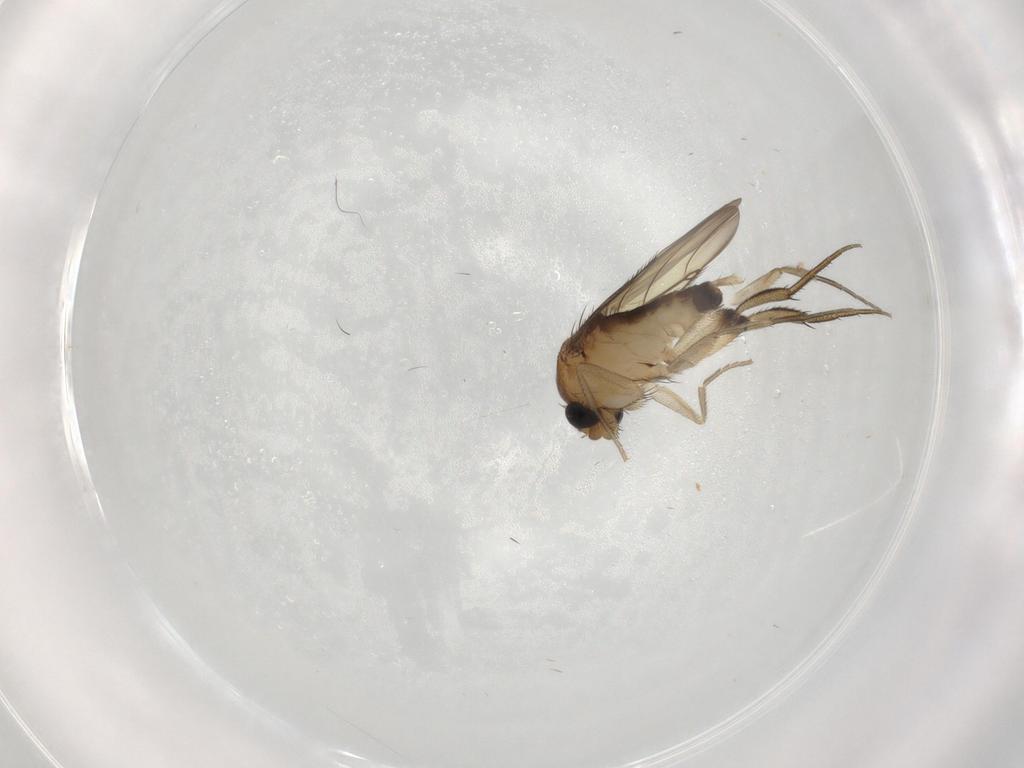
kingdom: Animalia
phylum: Arthropoda
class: Insecta
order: Diptera
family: Phoridae
